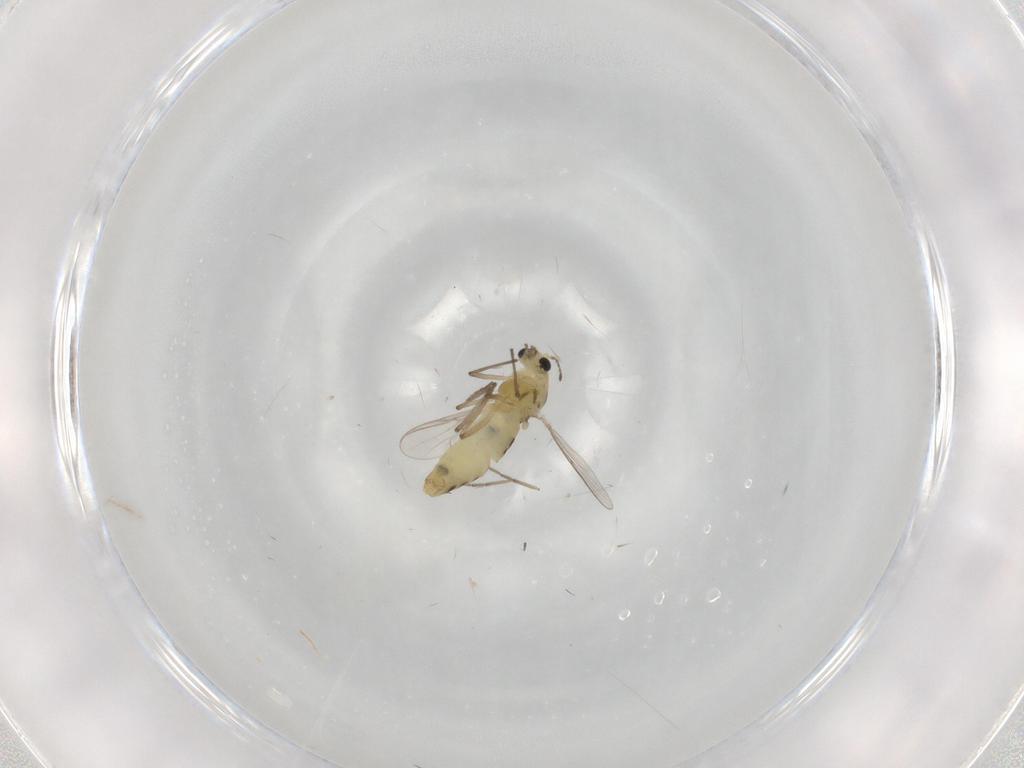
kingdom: Animalia
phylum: Arthropoda
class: Insecta
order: Diptera
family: Chironomidae
